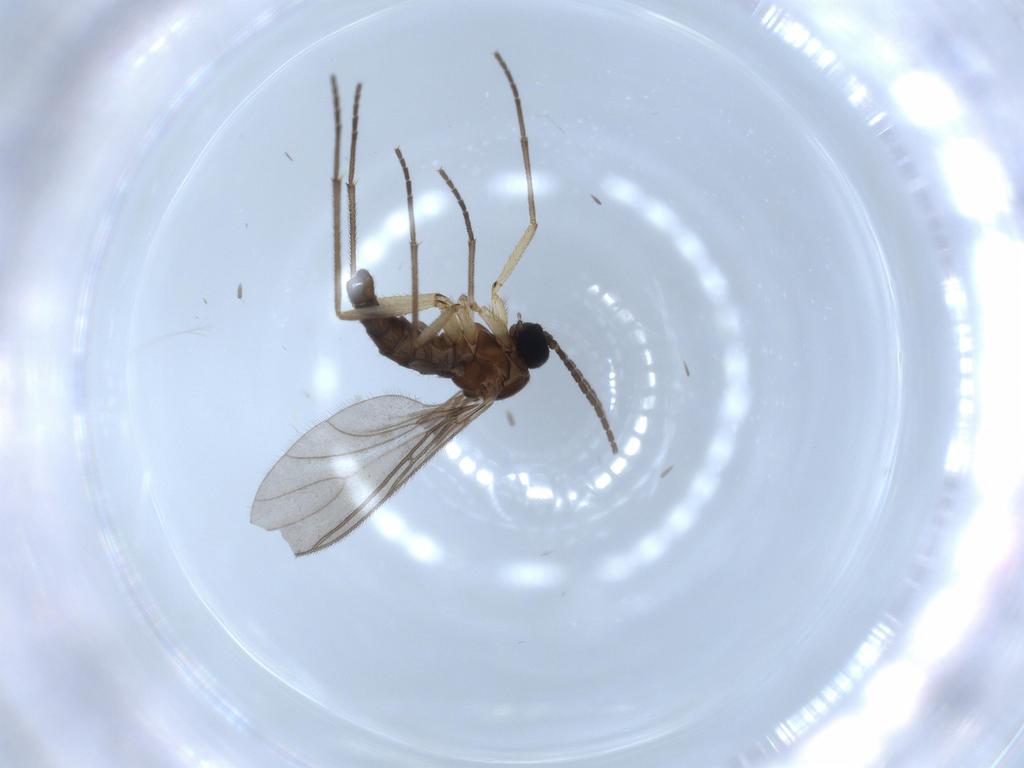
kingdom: Animalia
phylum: Arthropoda
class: Insecta
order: Diptera
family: Sciaridae
